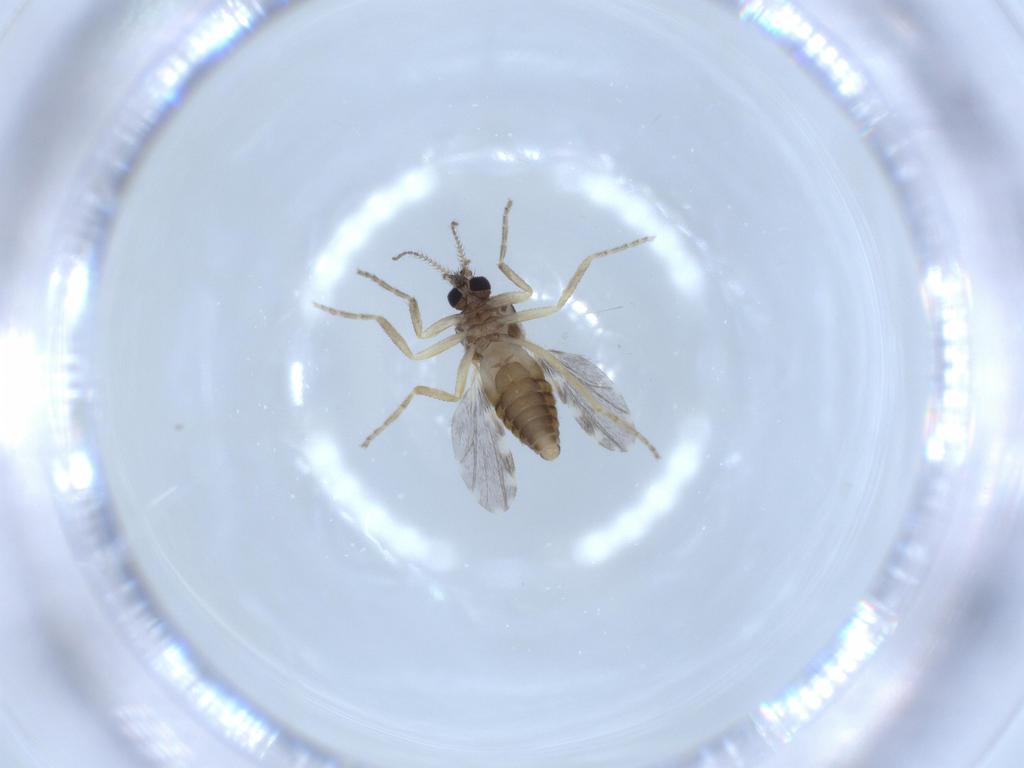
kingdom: Animalia
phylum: Arthropoda
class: Insecta
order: Diptera
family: Ceratopogonidae
